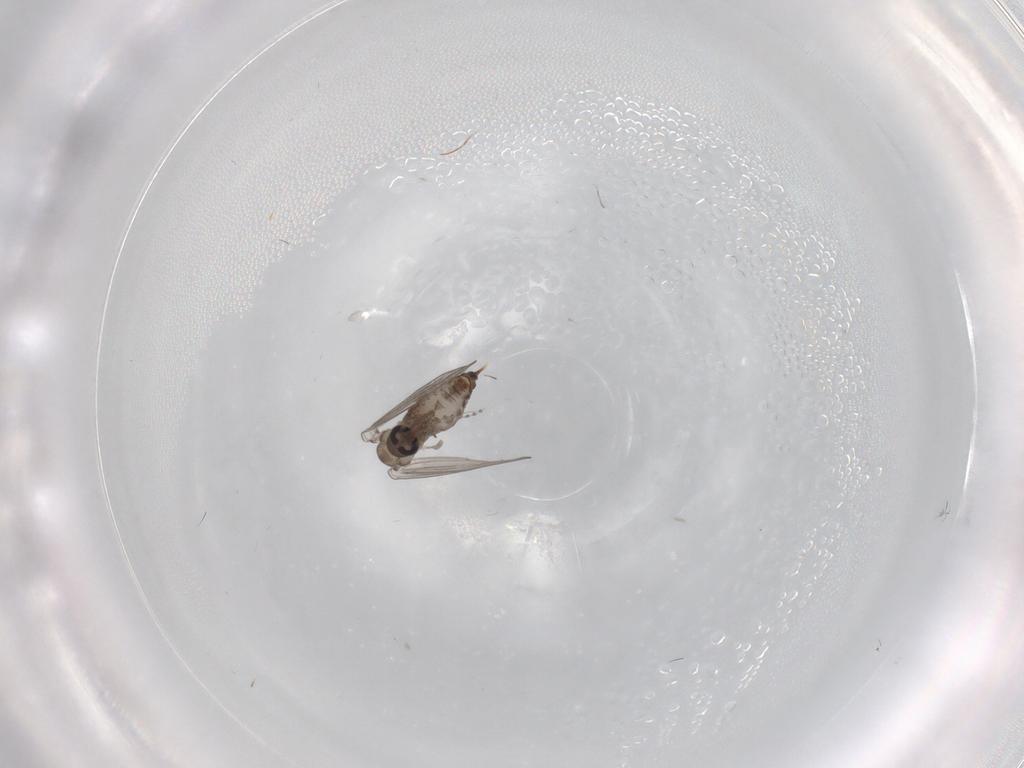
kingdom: Animalia
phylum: Arthropoda
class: Insecta
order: Diptera
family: Psychodidae
